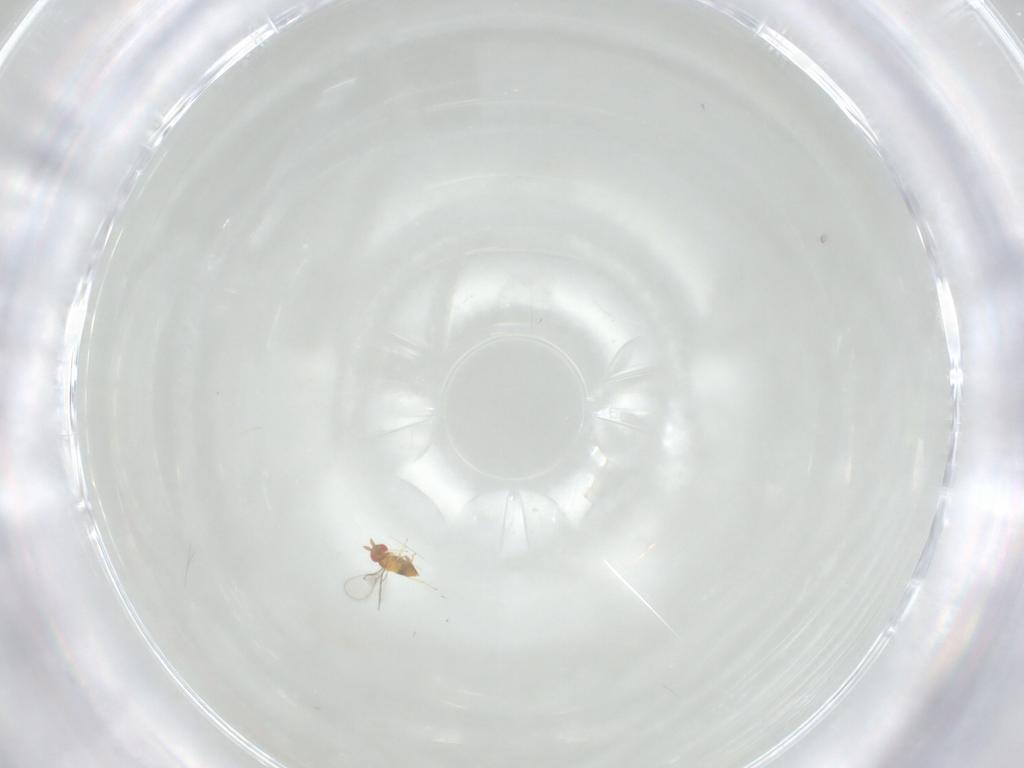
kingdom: Animalia
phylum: Arthropoda
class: Insecta
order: Hymenoptera
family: Trichogrammatidae
